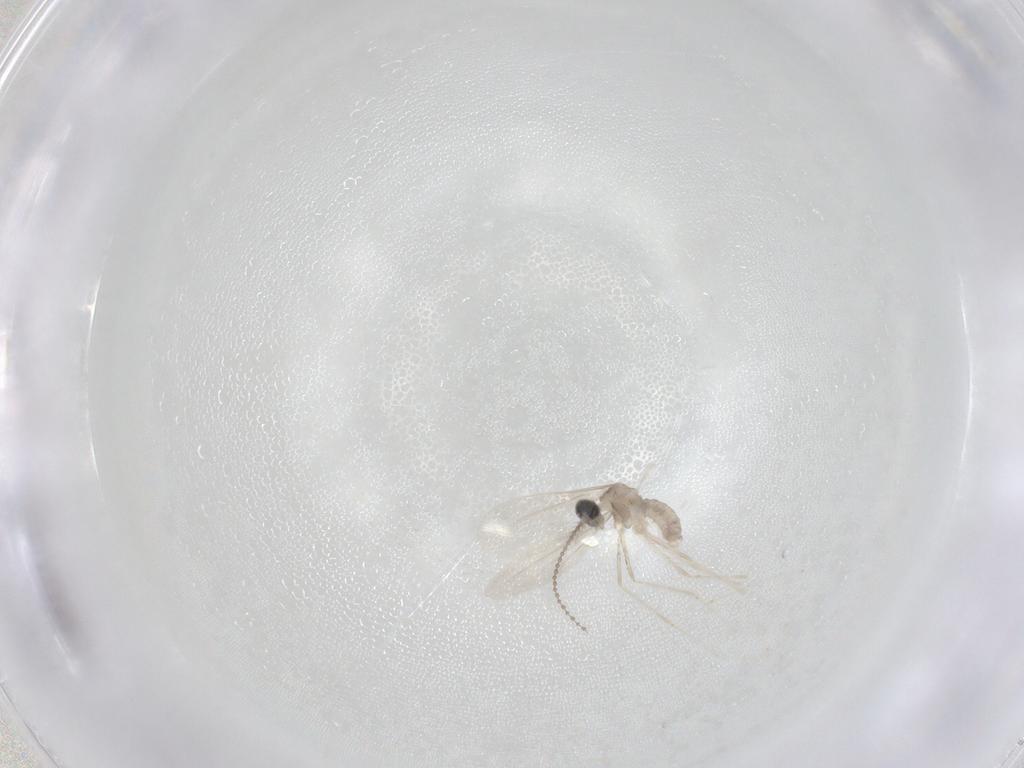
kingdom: Animalia
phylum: Arthropoda
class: Insecta
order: Diptera
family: Cecidomyiidae
